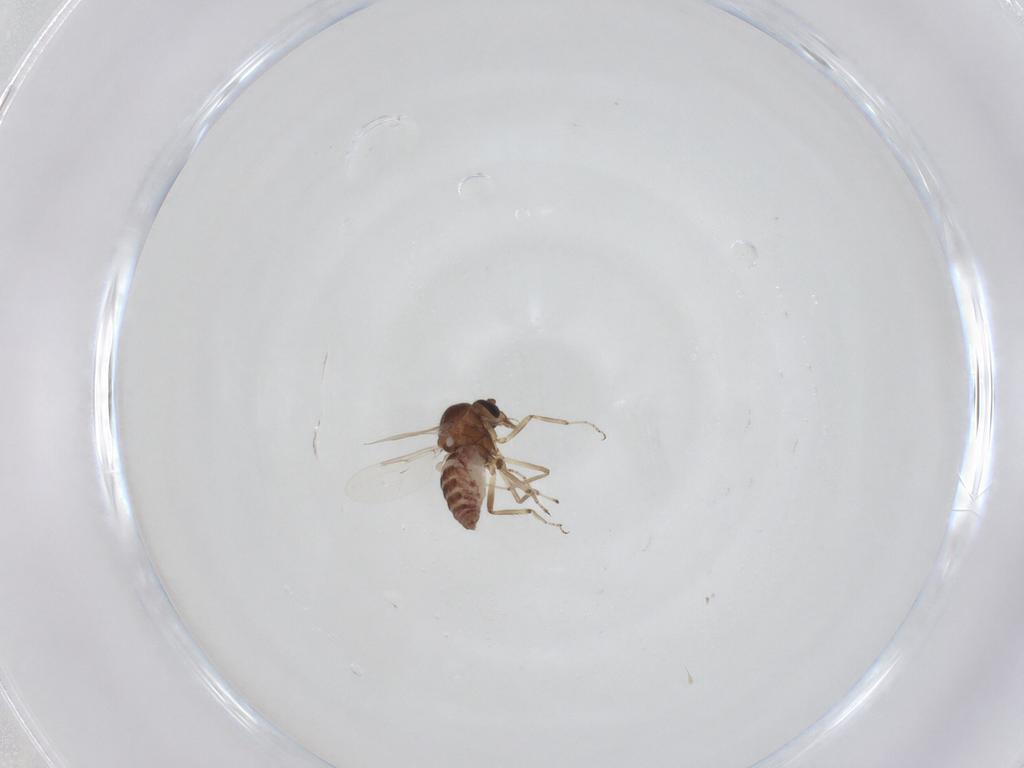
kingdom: Animalia
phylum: Arthropoda
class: Insecta
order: Diptera
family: Ceratopogonidae
